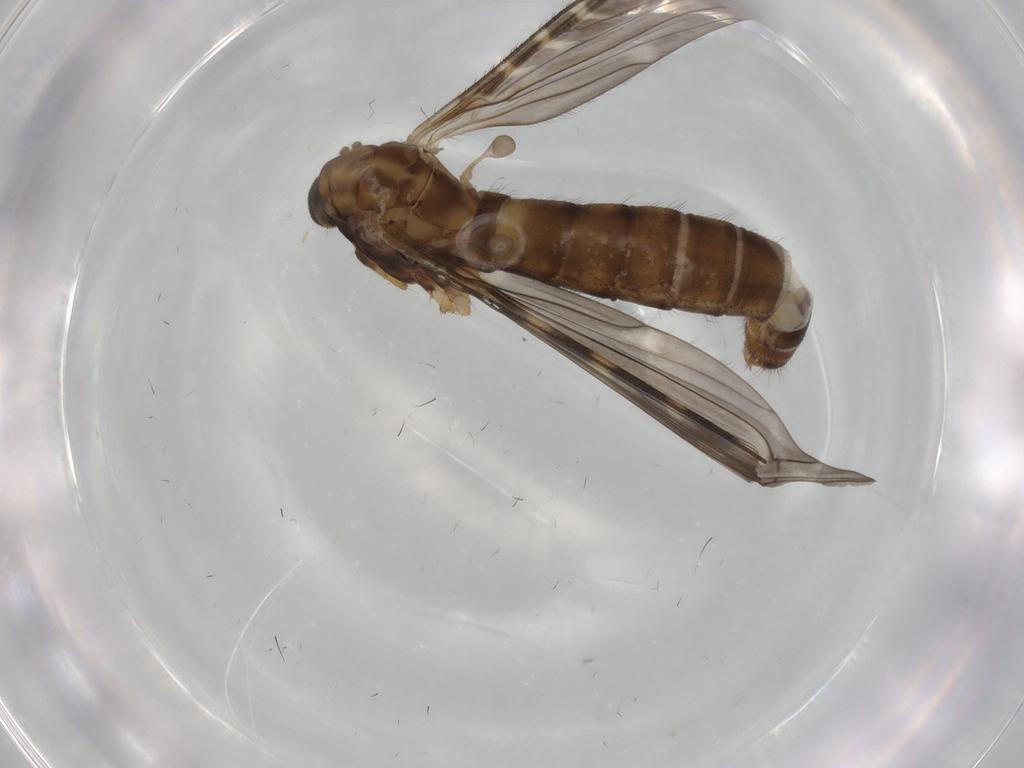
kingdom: Animalia
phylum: Arthropoda
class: Insecta
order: Diptera
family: Limoniidae
